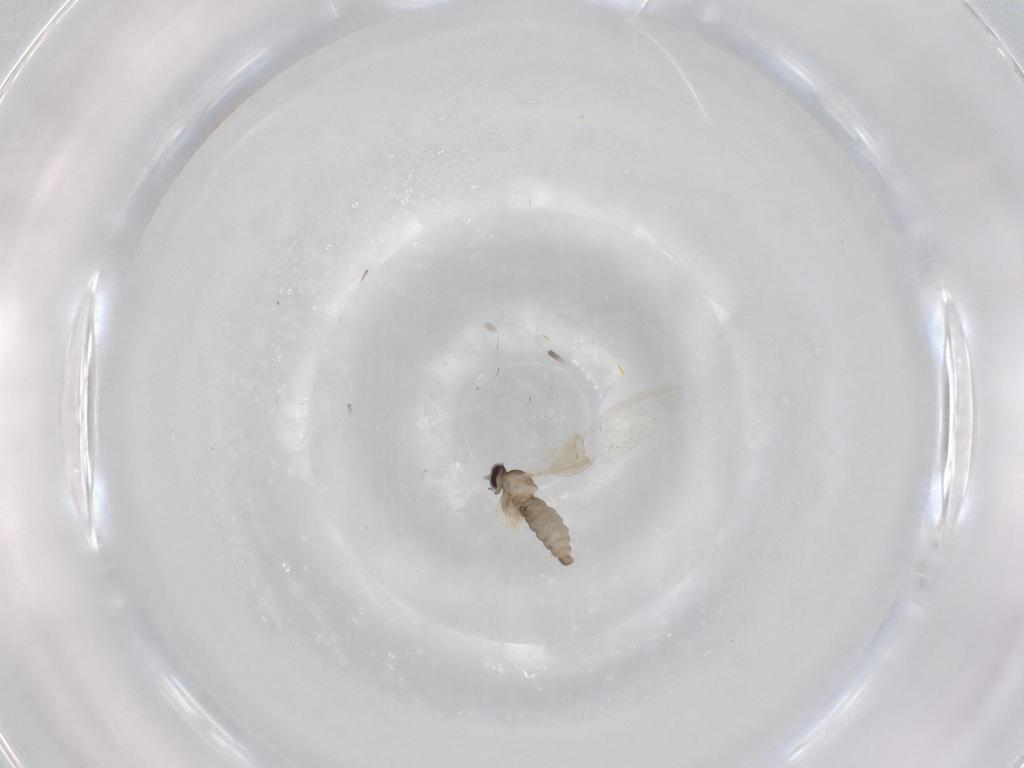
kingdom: Animalia
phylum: Arthropoda
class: Insecta
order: Diptera
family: Cecidomyiidae
